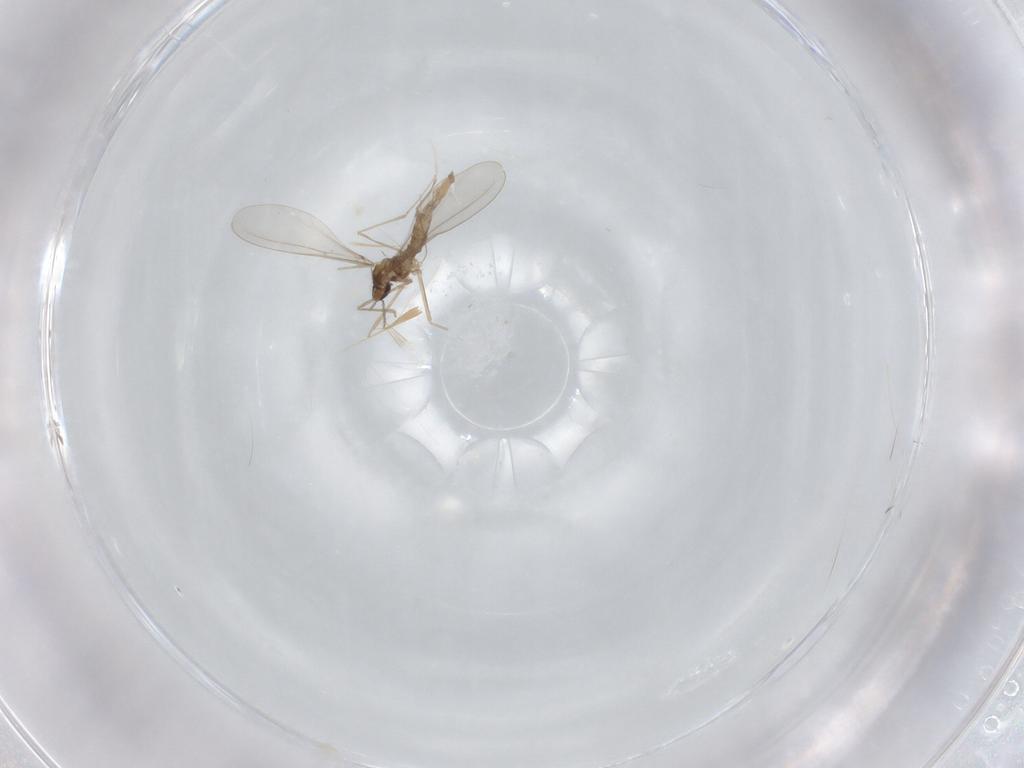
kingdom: Animalia
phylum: Arthropoda
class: Insecta
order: Diptera
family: Cecidomyiidae
